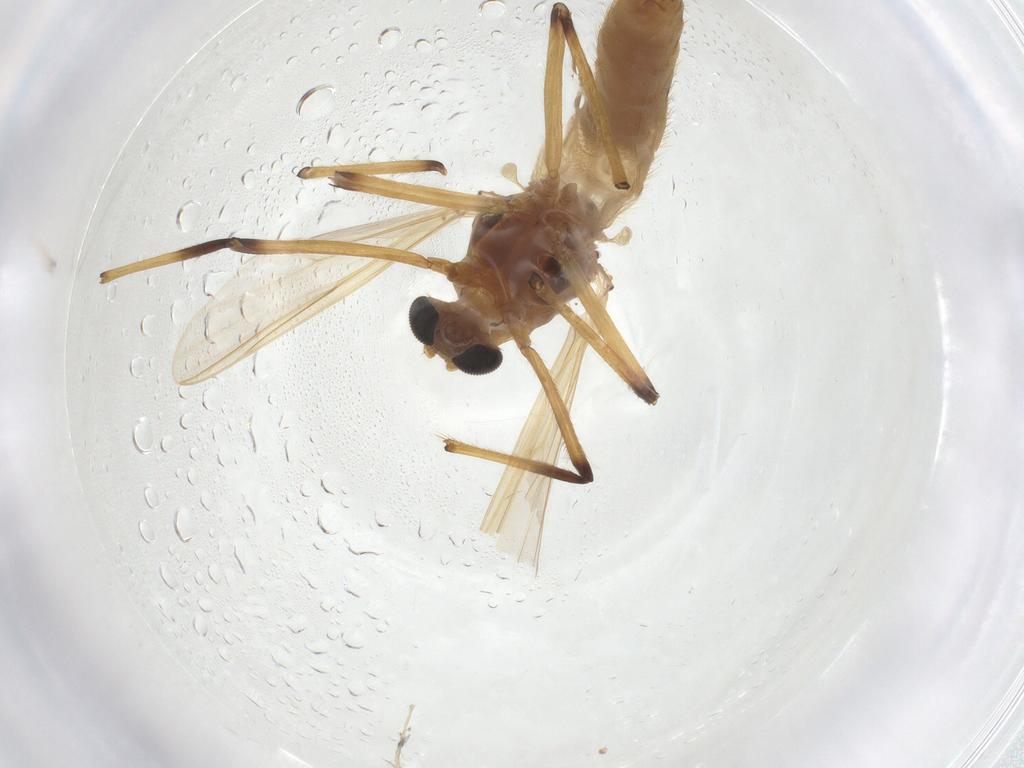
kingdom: Animalia
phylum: Arthropoda
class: Insecta
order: Diptera
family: Chironomidae
